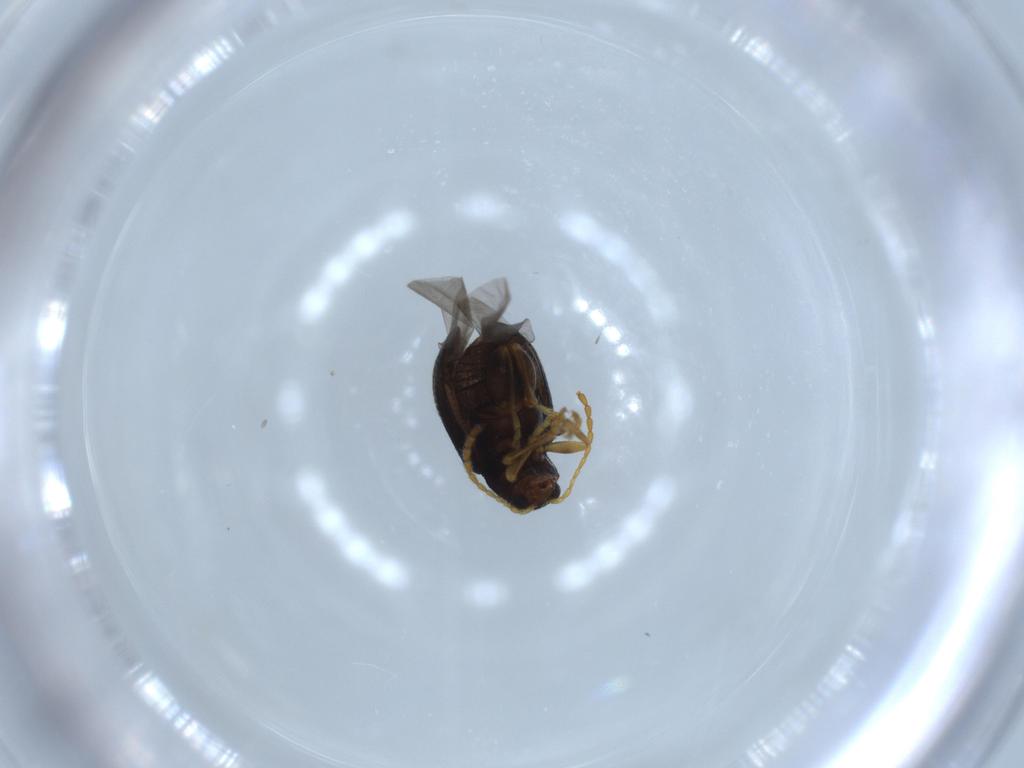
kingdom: Animalia
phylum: Arthropoda
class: Insecta
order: Coleoptera
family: Chrysomelidae
